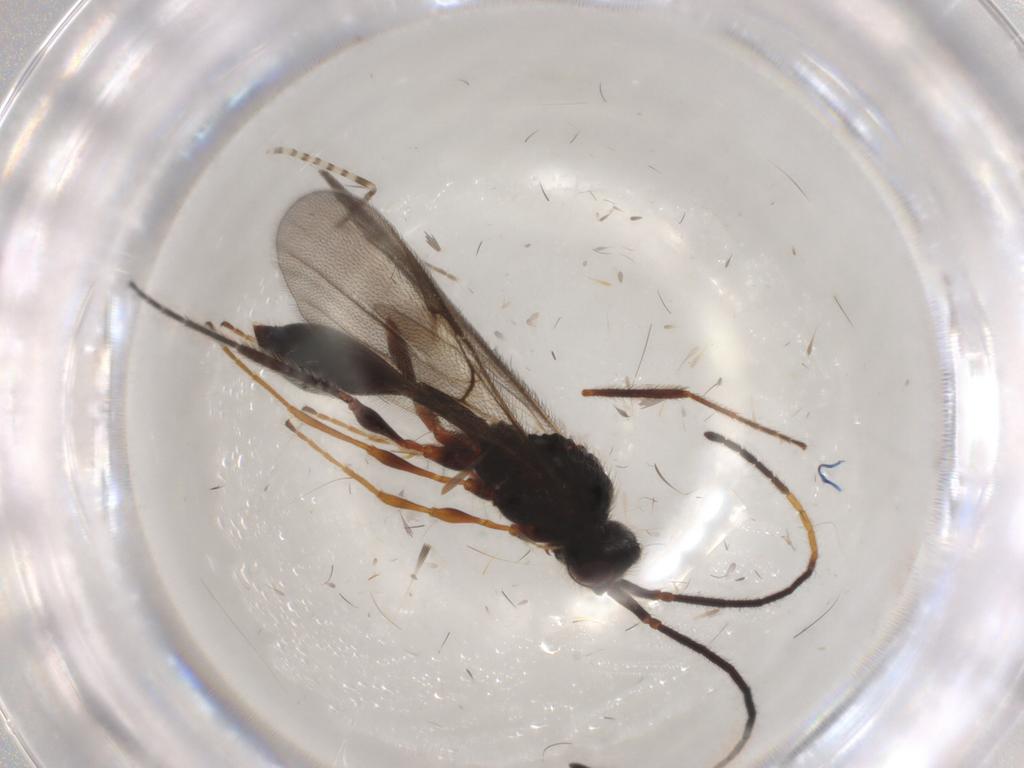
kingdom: Animalia
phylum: Arthropoda
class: Insecta
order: Hymenoptera
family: Diapriidae
